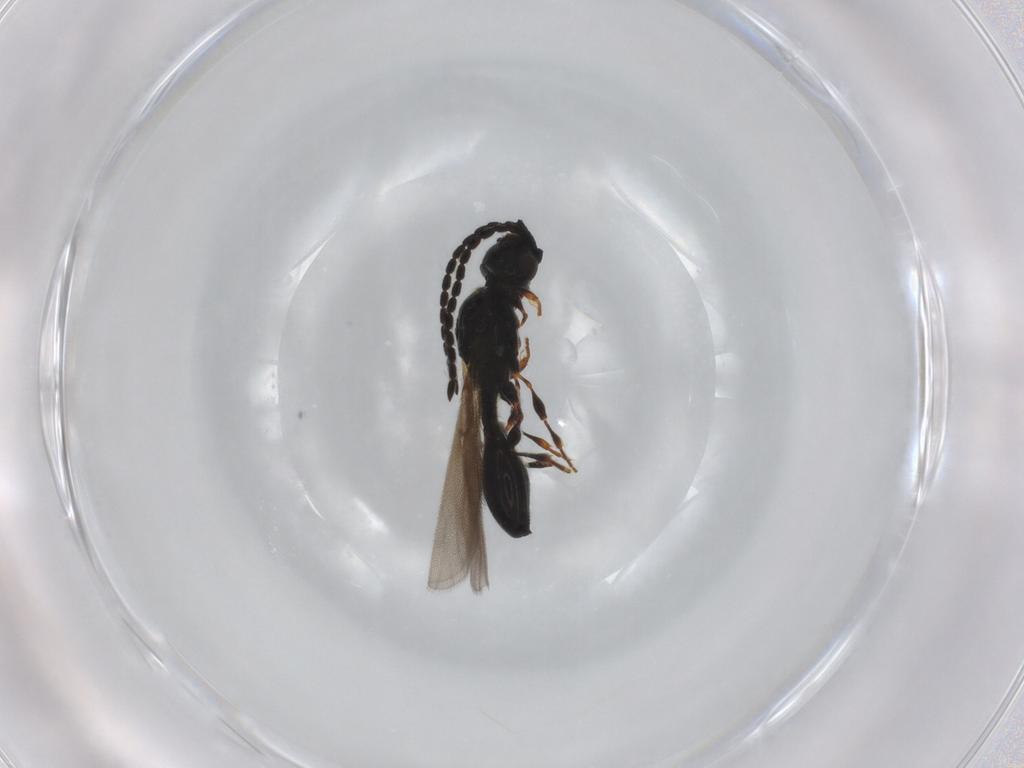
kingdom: Animalia
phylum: Arthropoda
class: Insecta
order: Hymenoptera
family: Diapriidae
